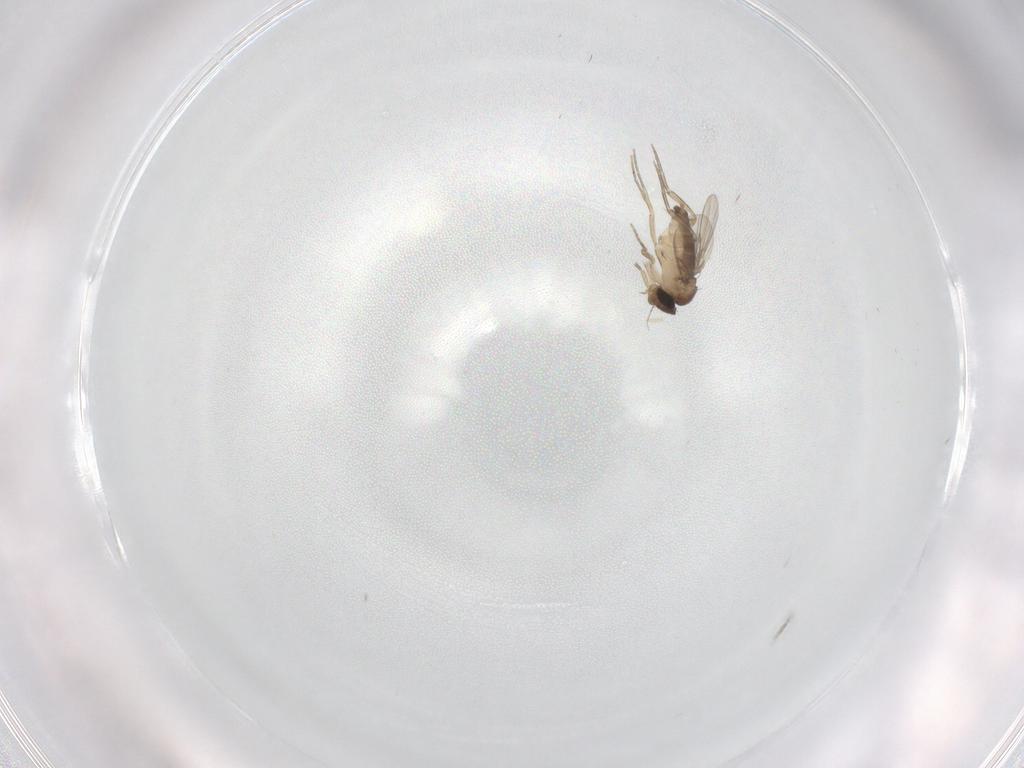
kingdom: Animalia
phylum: Arthropoda
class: Insecta
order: Diptera
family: Phoridae
